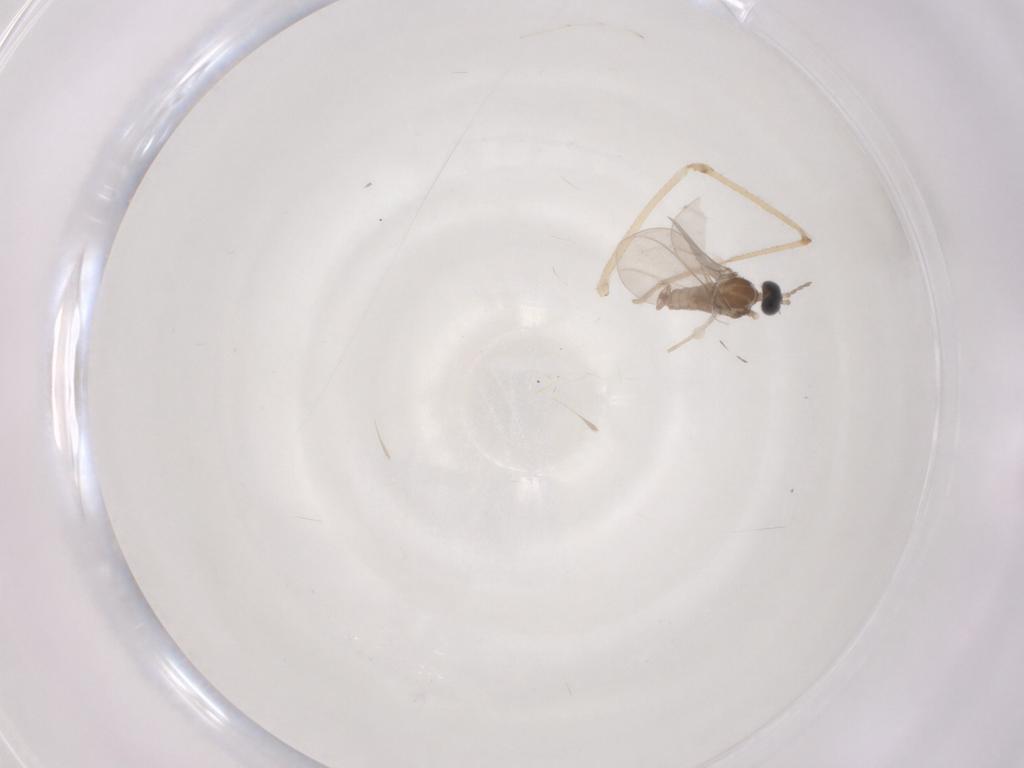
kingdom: Animalia
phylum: Arthropoda
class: Insecta
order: Diptera
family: Cecidomyiidae
